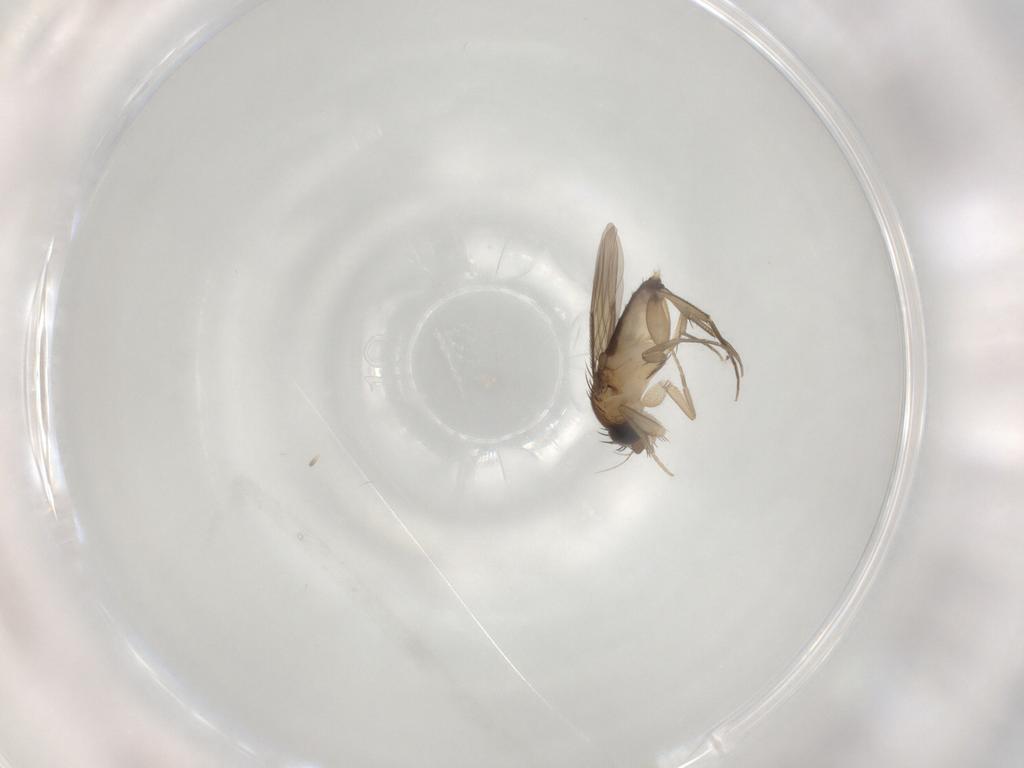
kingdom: Animalia
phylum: Arthropoda
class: Insecta
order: Diptera
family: Phoridae
